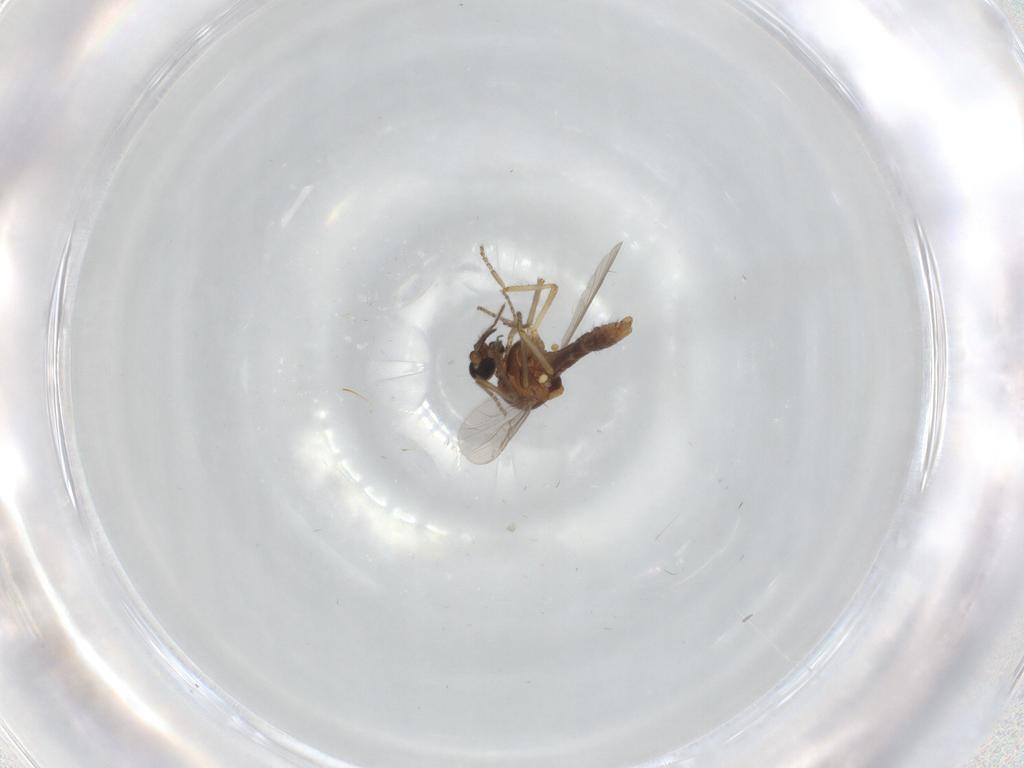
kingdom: Animalia
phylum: Arthropoda
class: Insecta
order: Diptera
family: Ceratopogonidae
